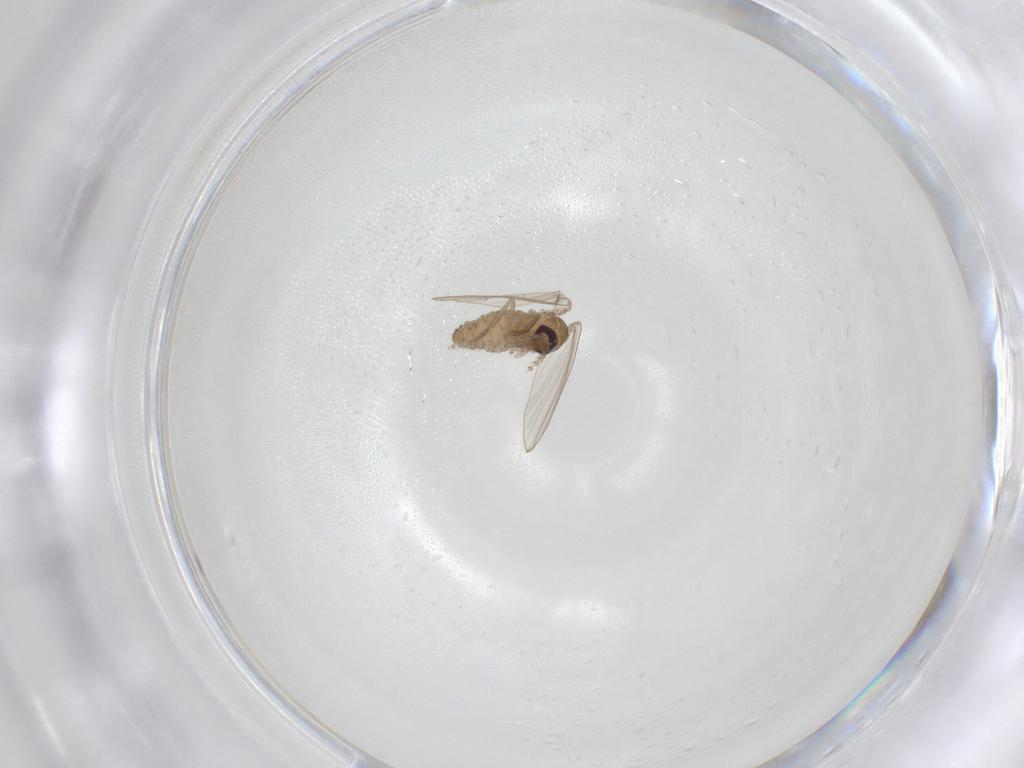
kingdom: Animalia
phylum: Arthropoda
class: Insecta
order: Diptera
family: Psychodidae
